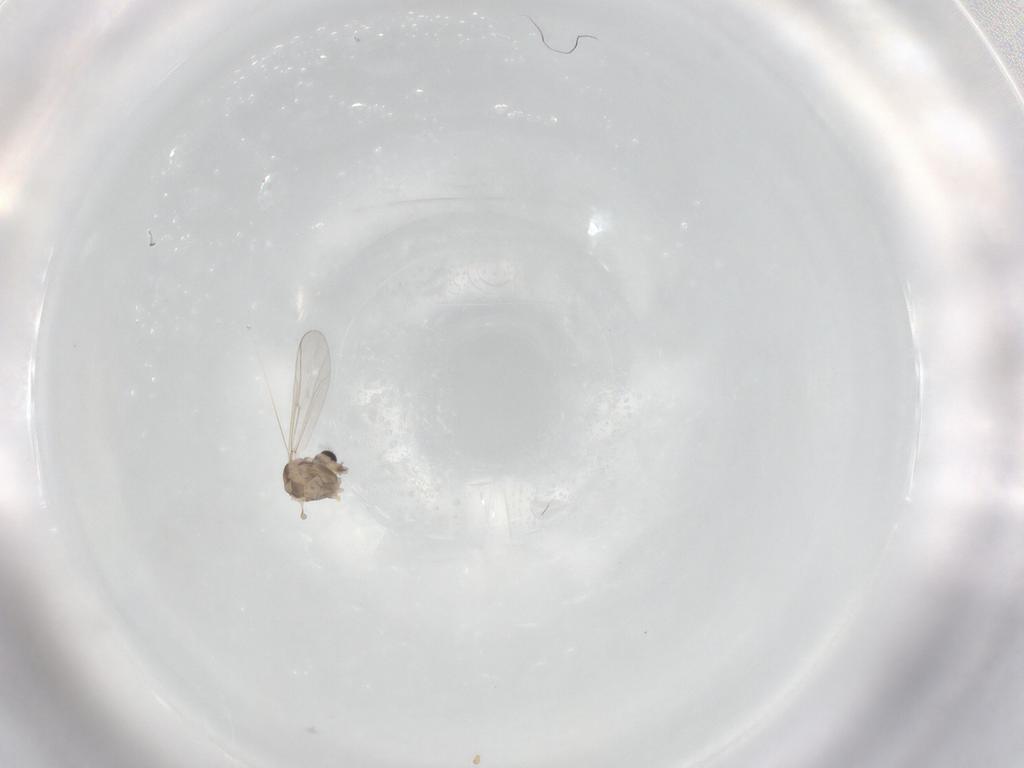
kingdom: Animalia
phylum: Arthropoda
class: Insecta
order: Diptera
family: Chironomidae
